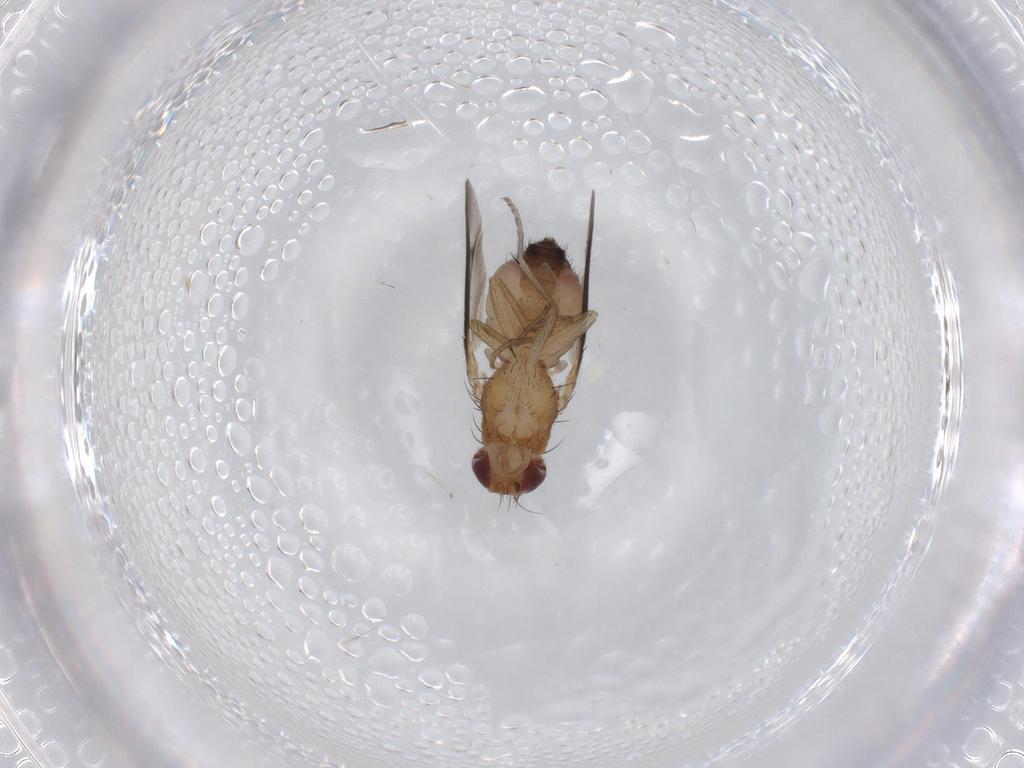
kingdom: Animalia
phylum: Arthropoda
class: Insecta
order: Diptera
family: Heleomyzidae
